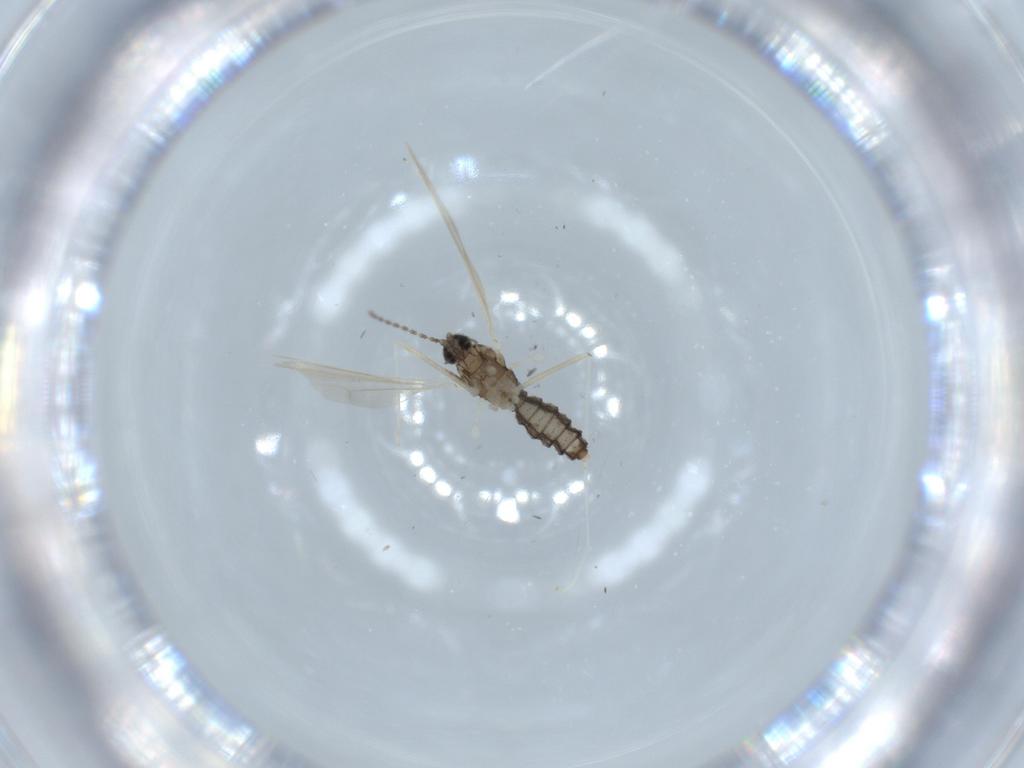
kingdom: Animalia
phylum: Arthropoda
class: Insecta
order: Diptera
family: Cecidomyiidae
